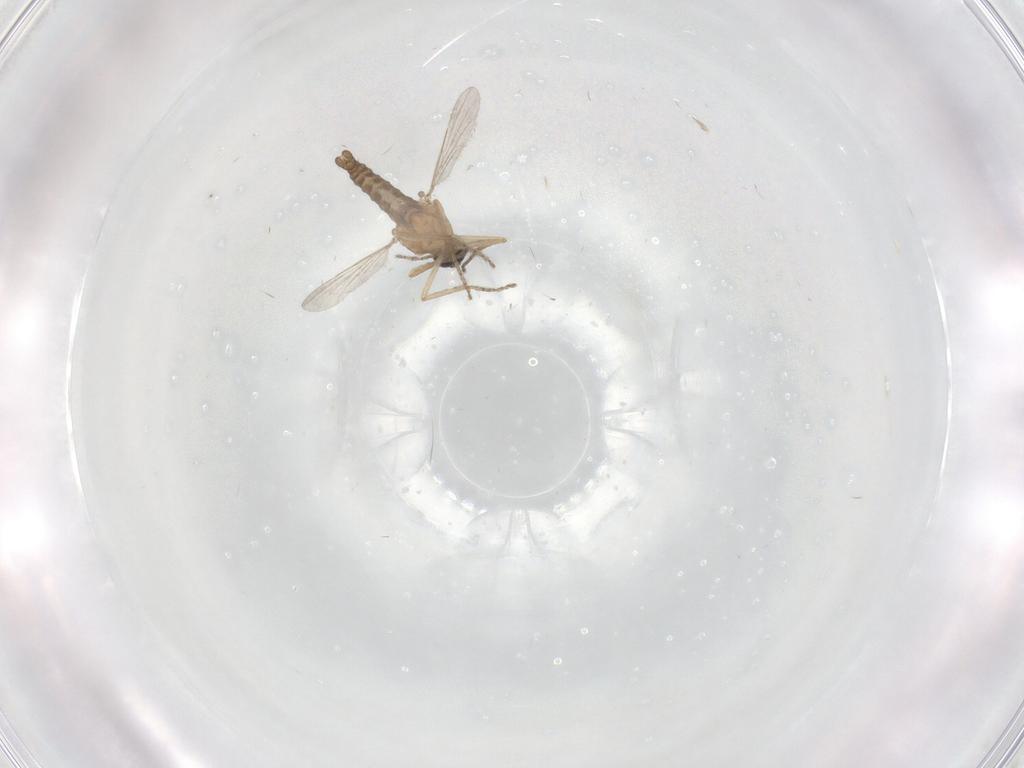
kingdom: Animalia
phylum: Arthropoda
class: Insecta
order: Diptera
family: Ceratopogonidae
